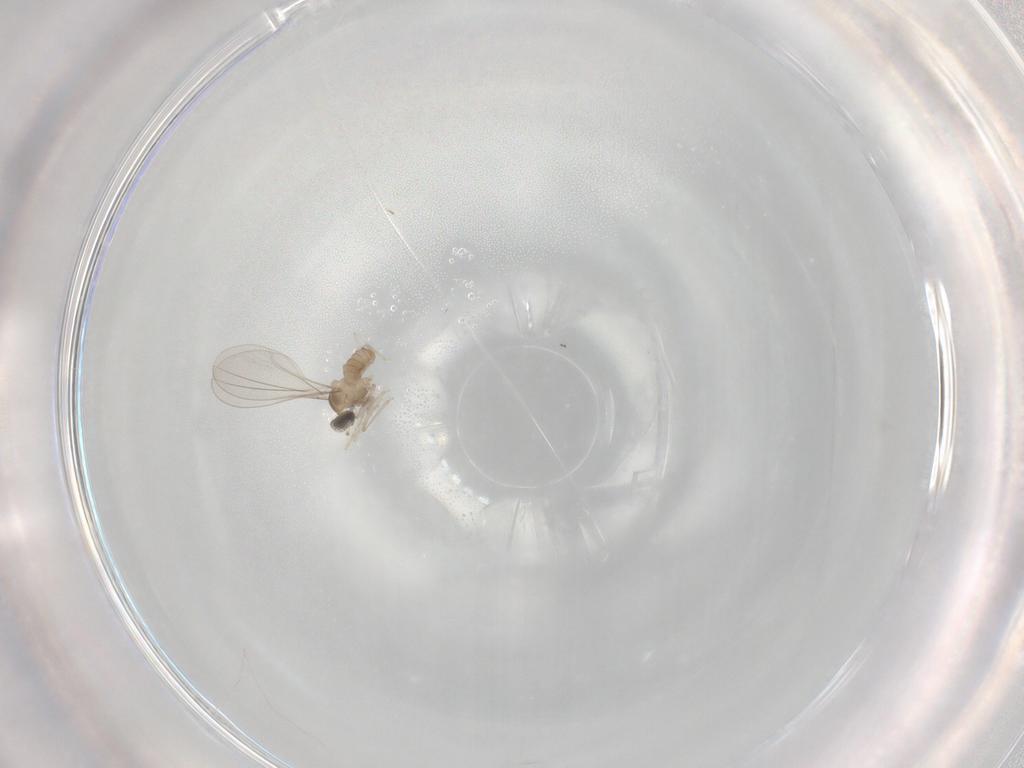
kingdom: Animalia
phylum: Arthropoda
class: Insecta
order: Diptera
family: Cecidomyiidae
